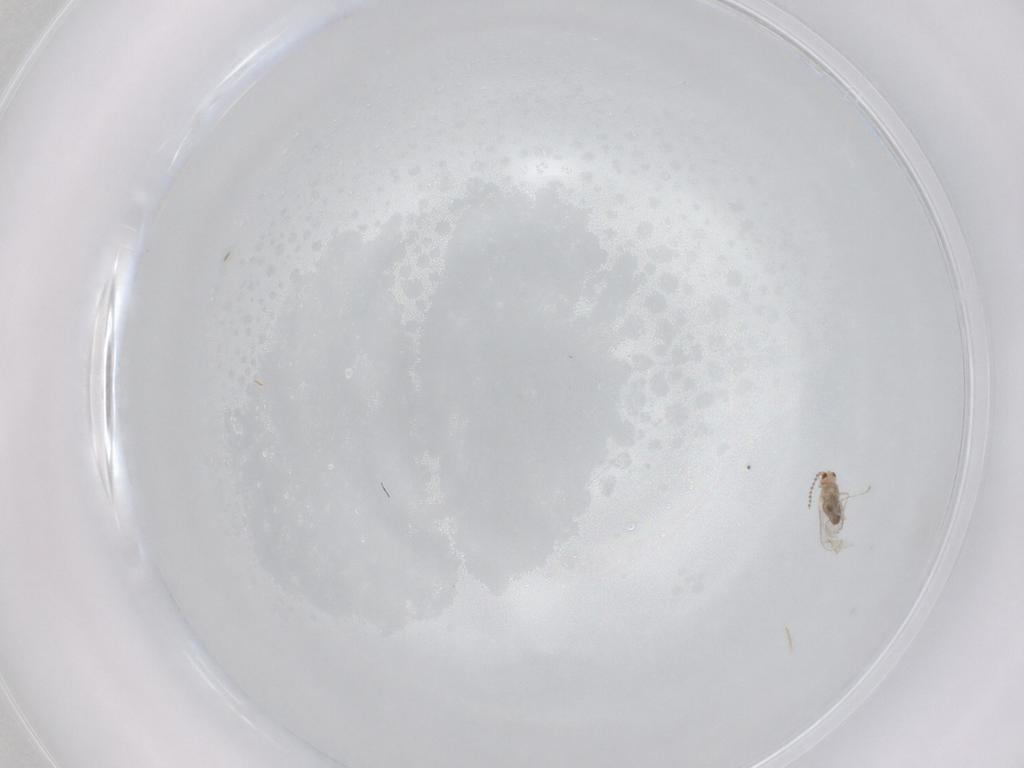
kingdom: Animalia
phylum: Arthropoda
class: Insecta
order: Diptera
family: Cecidomyiidae
